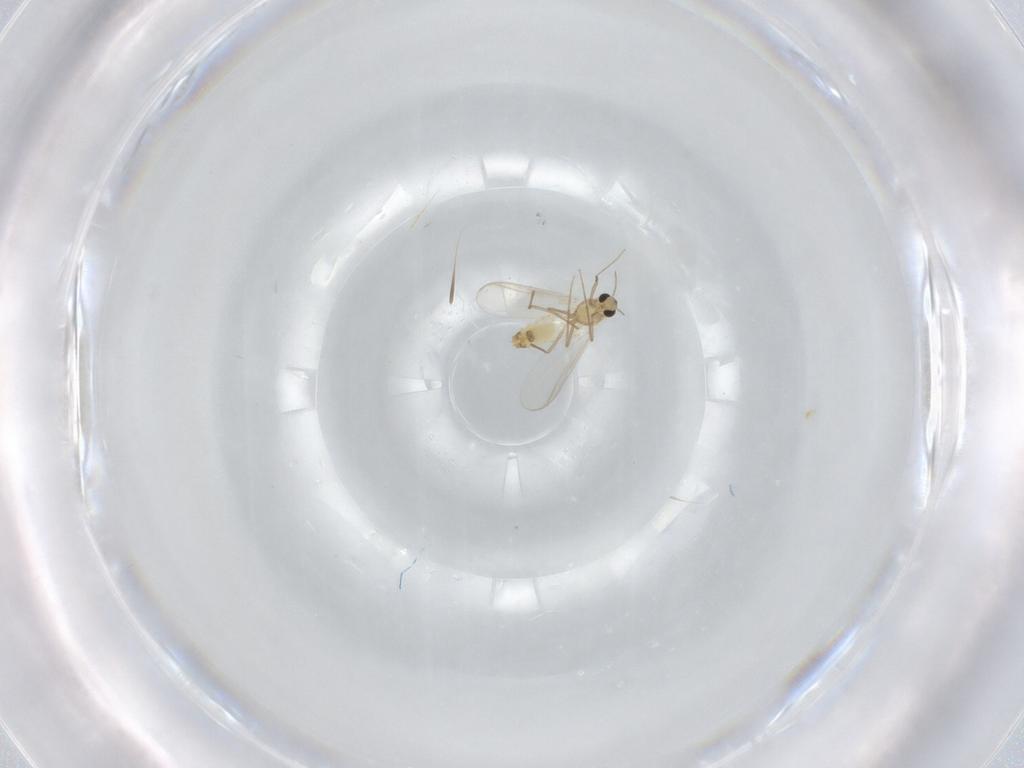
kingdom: Animalia
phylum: Arthropoda
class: Insecta
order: Diptera
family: Chironomidae
